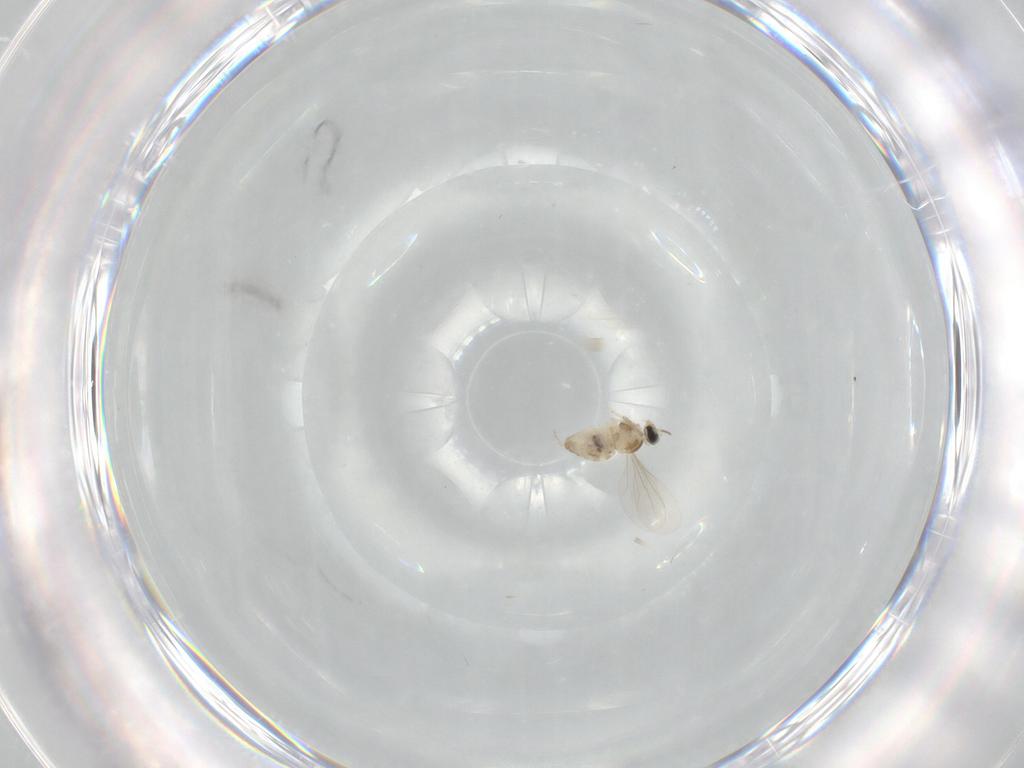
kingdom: Animalia
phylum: Arthropoda
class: Insecta
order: Diptera
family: Cecidomyiidae
